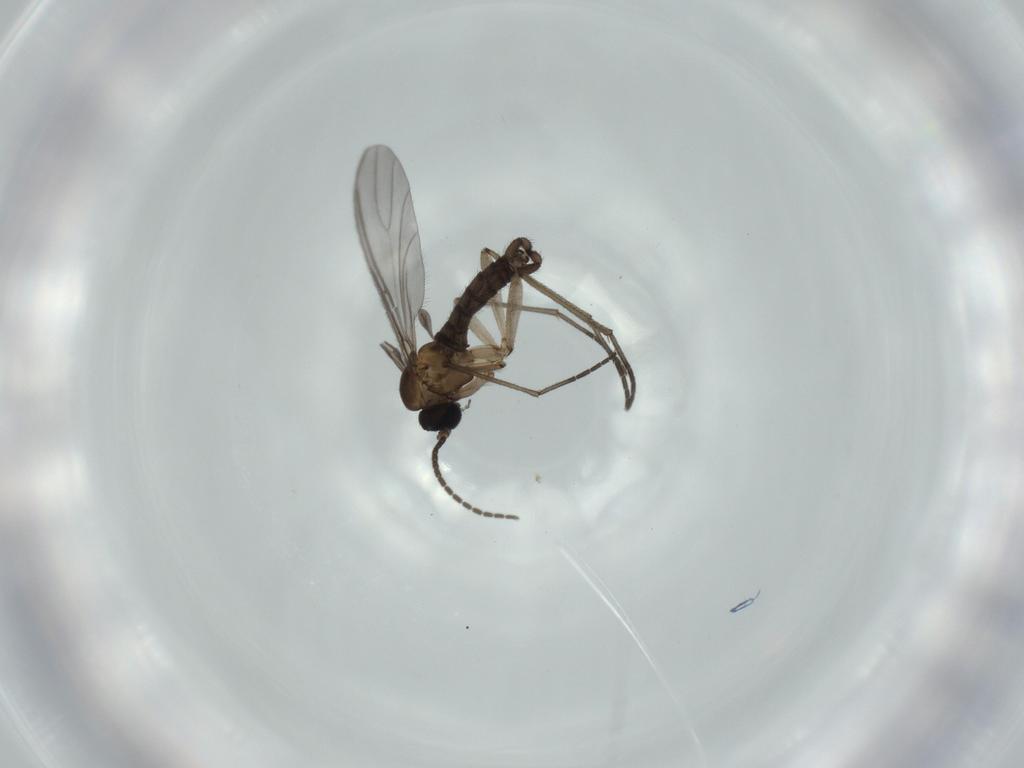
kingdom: Animalia
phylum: Arthropoda
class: Insecta
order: Diptera
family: Sciaridae
